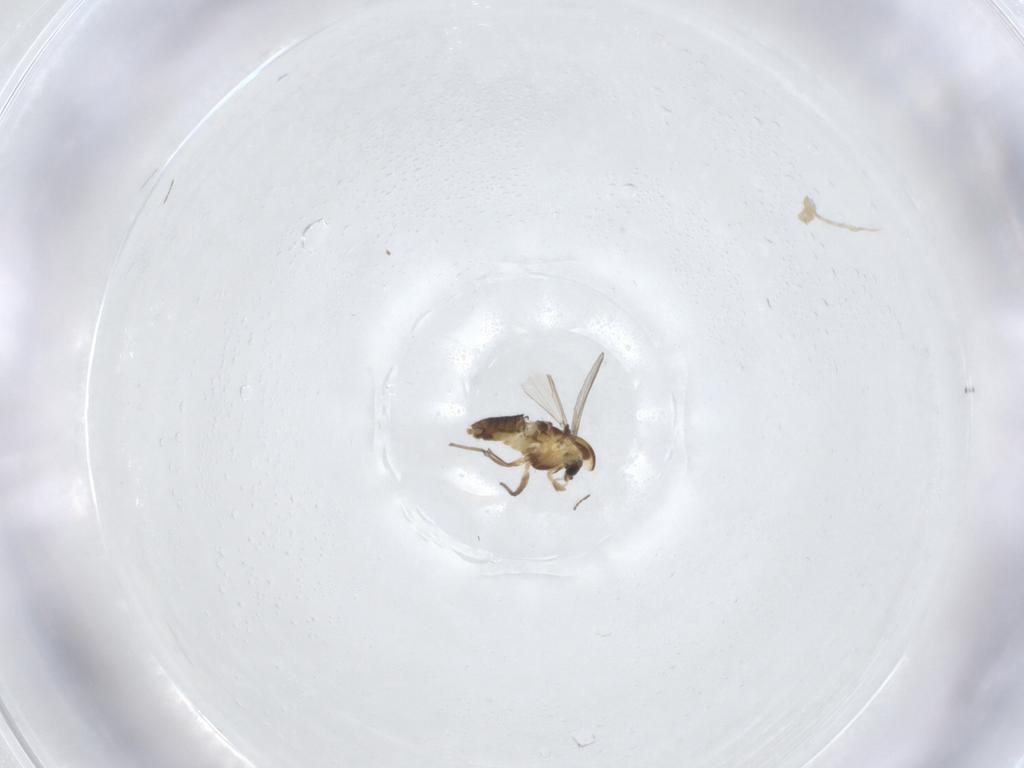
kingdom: Animalia
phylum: Arthropoda
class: Insecta
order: Diptera
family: Chironomidae
